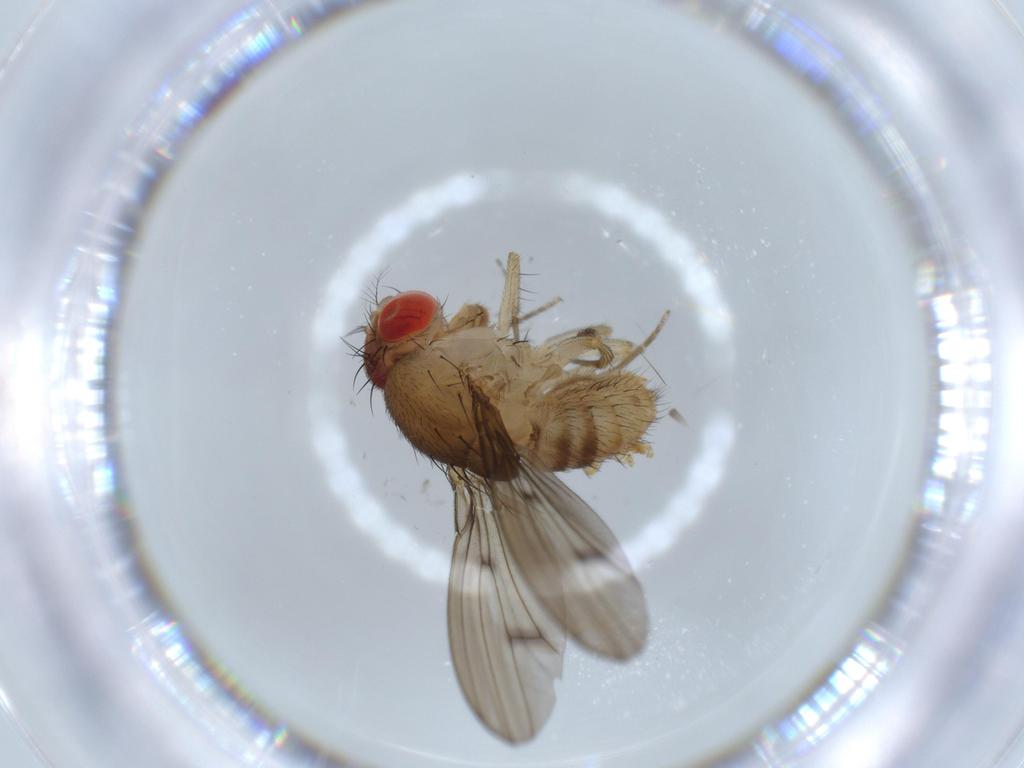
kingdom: Animalia
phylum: Arthropoda
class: Insecta
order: Diptera
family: Drosophilidae
